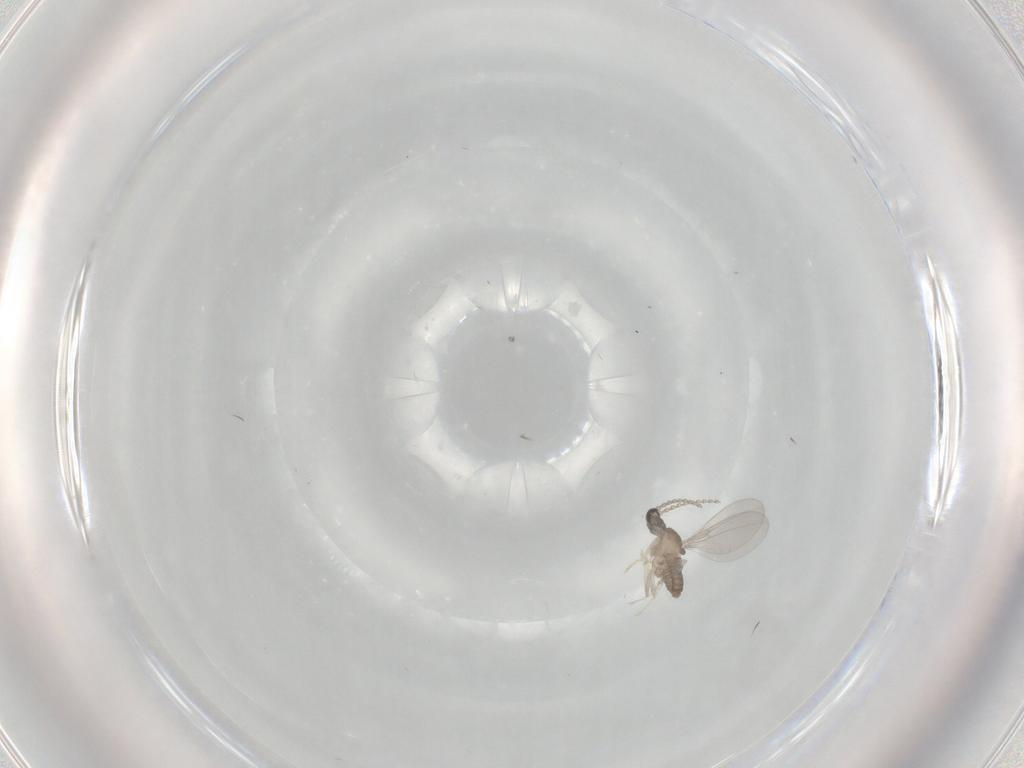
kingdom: Animalia
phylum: Arthropoda
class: Insecta
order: Diptera
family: Cecidomyiidae
